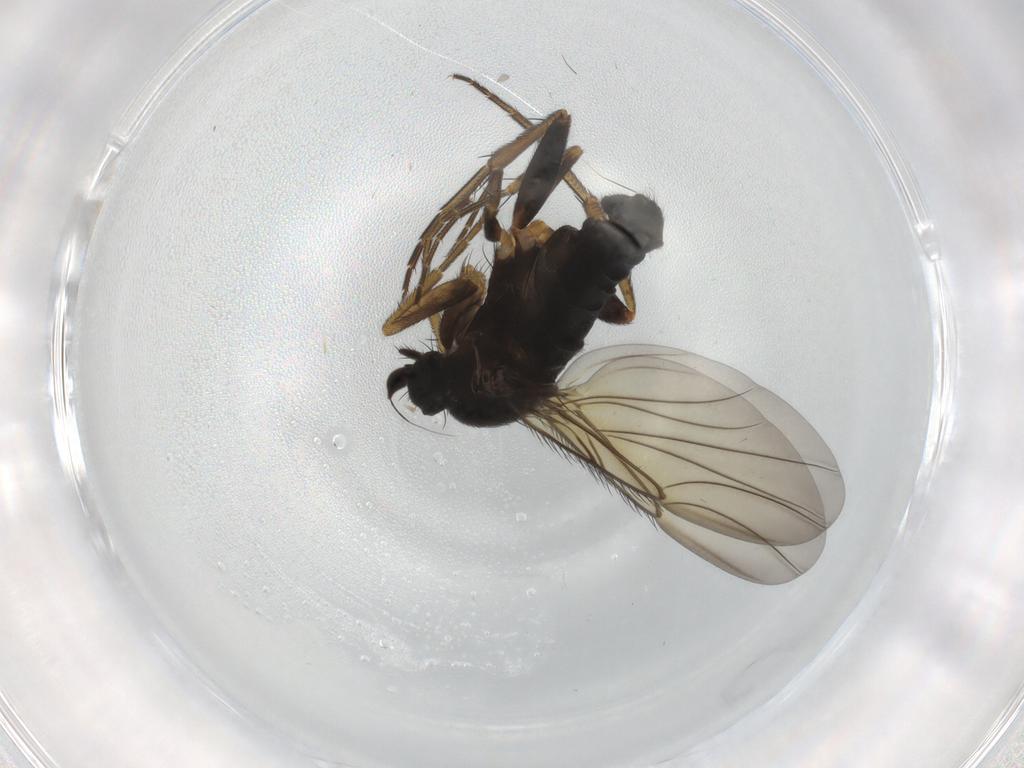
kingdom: Animalia
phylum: Arthropoda
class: Insecta
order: Diptera
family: Phoridae
